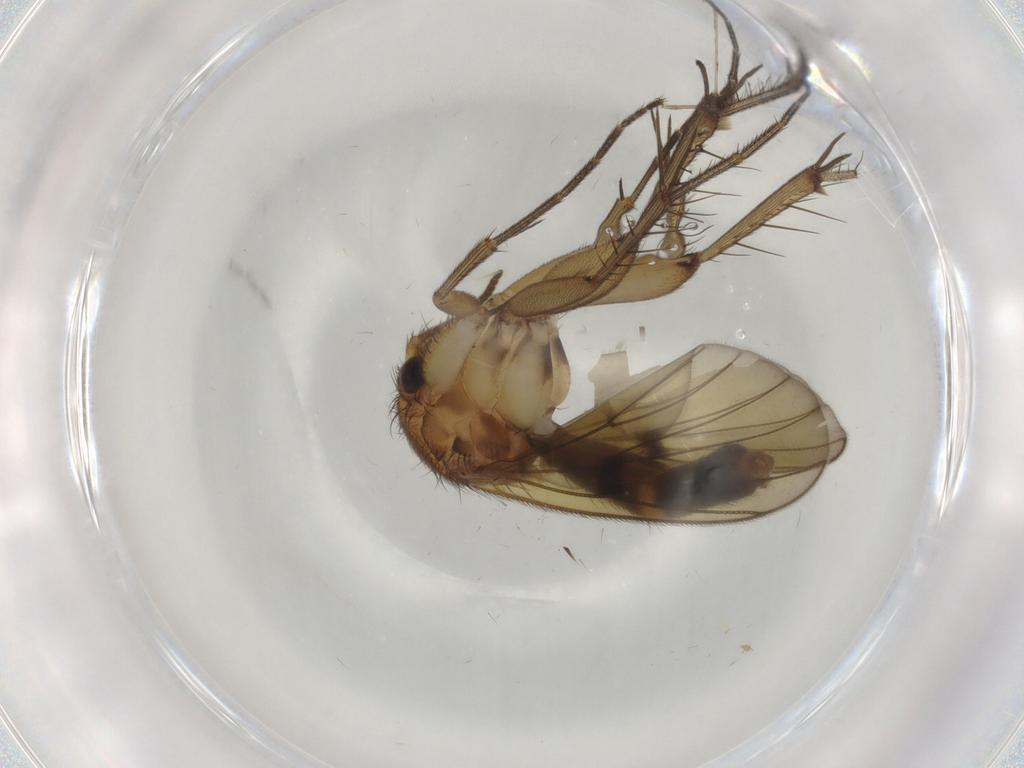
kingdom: Animalia
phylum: Arthropoda
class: Insecta
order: Diptera
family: Mycetophilidae
